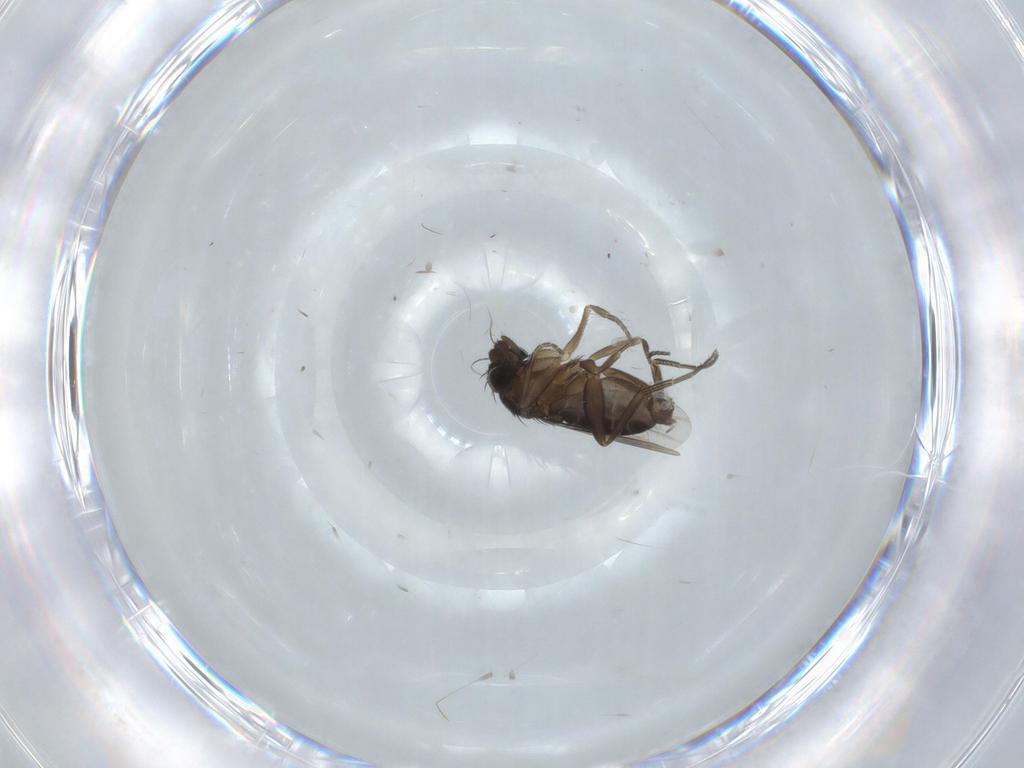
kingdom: Animalia
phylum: Arthropoda
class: Insecta
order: Diptera
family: Phoridae
